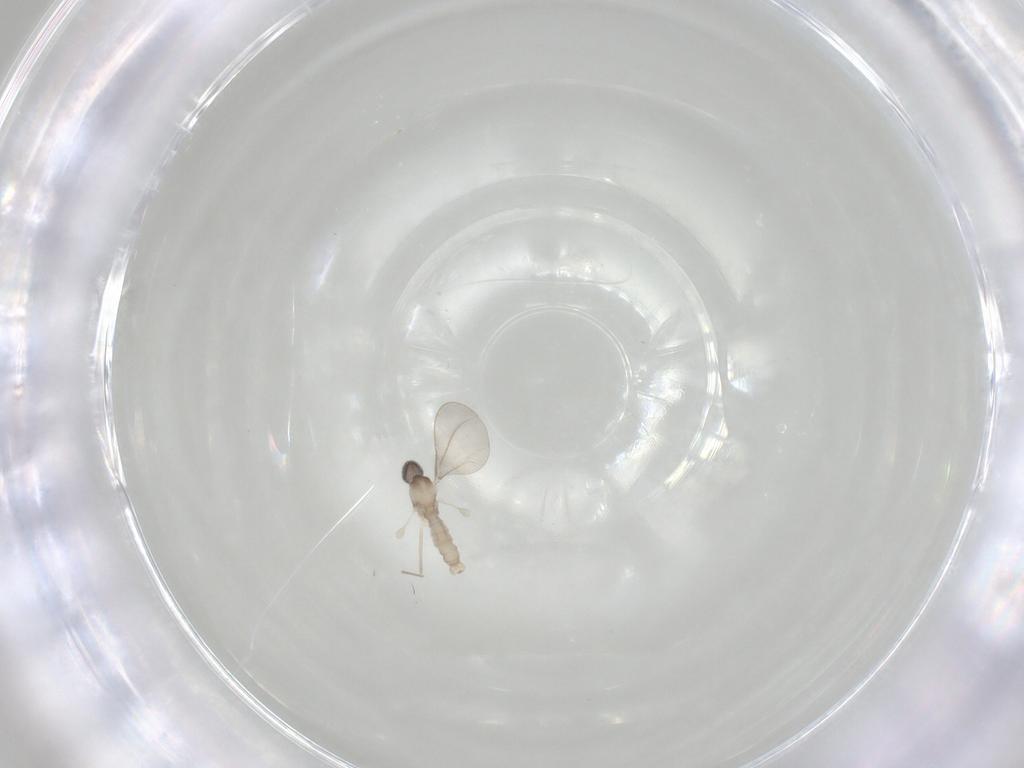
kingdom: Animalia
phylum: Arthropoda
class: Insecta
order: Diptera
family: Cecidomyiidae
